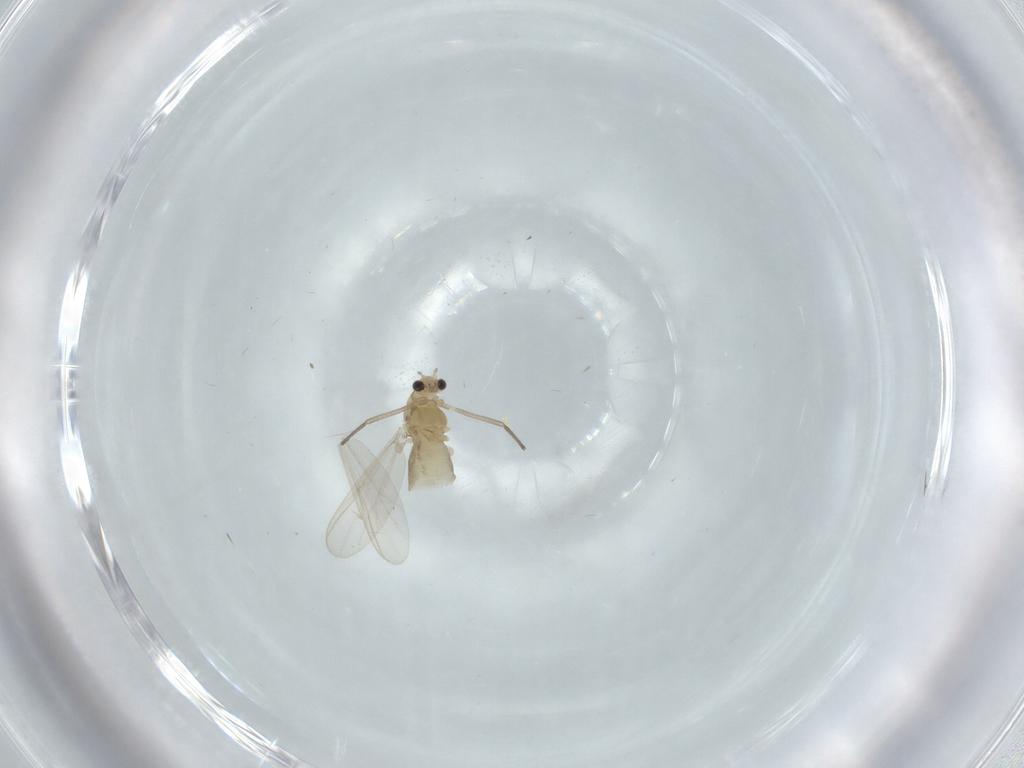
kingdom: Animalia
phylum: Arthropoda
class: Insecta
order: Diptera
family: Chironomidae
